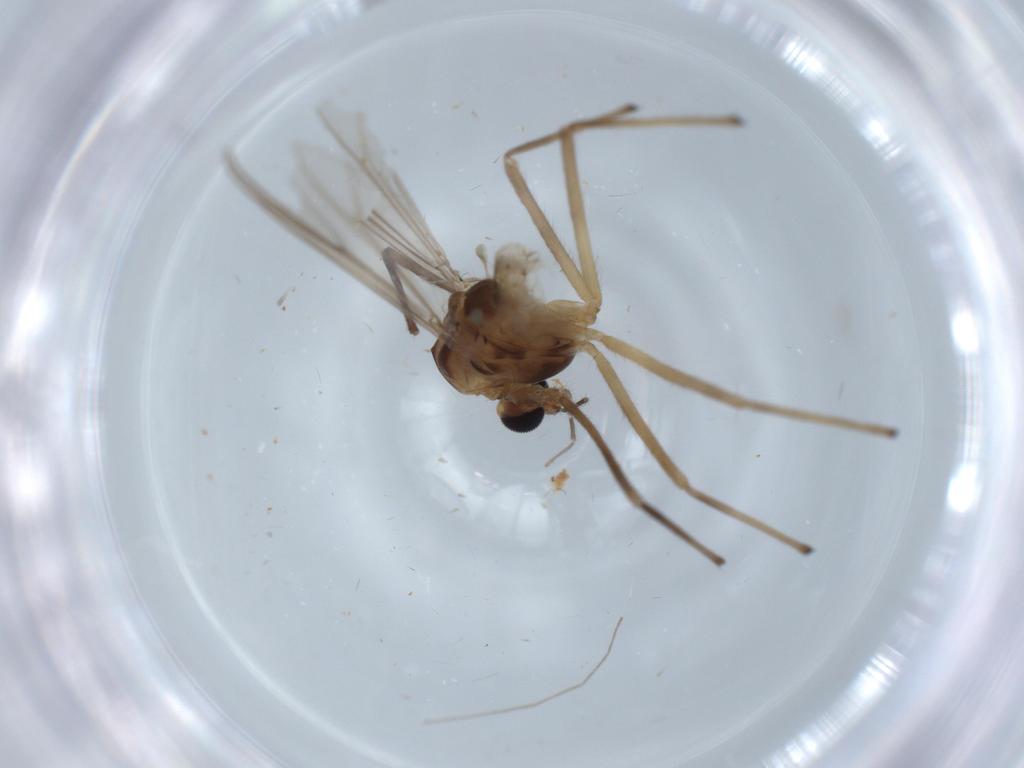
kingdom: Animalia
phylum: Arthropoda
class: Insecta
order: Diptera
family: Chironomidae
